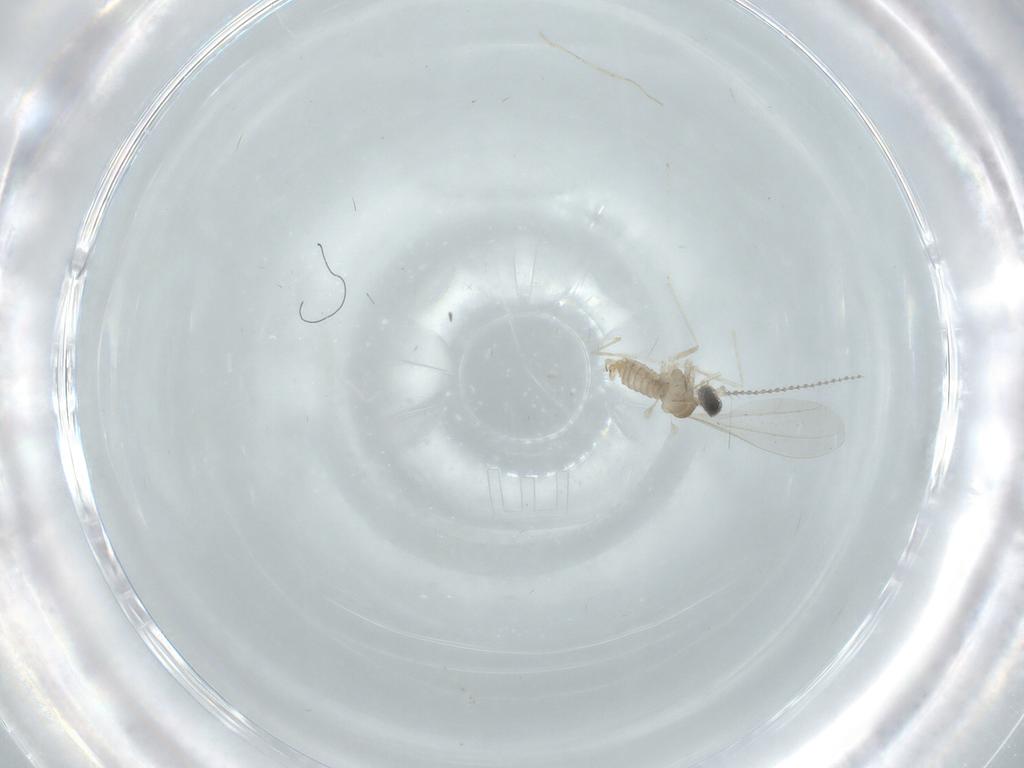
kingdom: Animalia
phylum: Arthropoda
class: Insecta
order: Diptera
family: Cecidomyiidae
